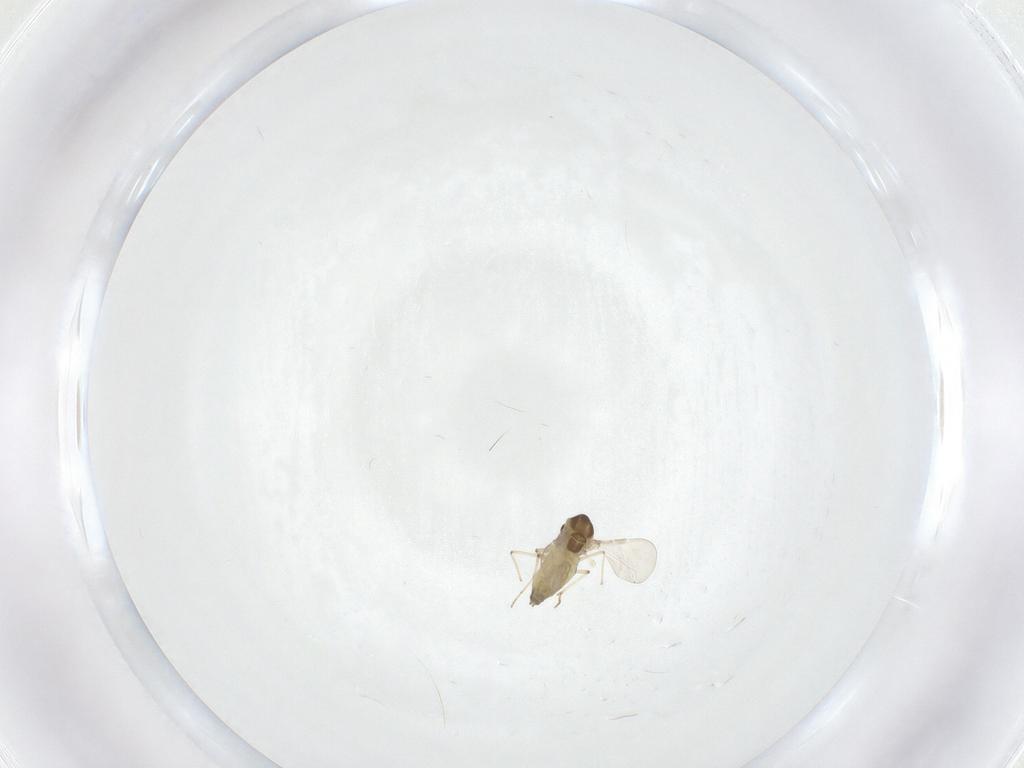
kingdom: Animalia
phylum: Arthropoda
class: Insecta
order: Diptera
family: Chironomidae
